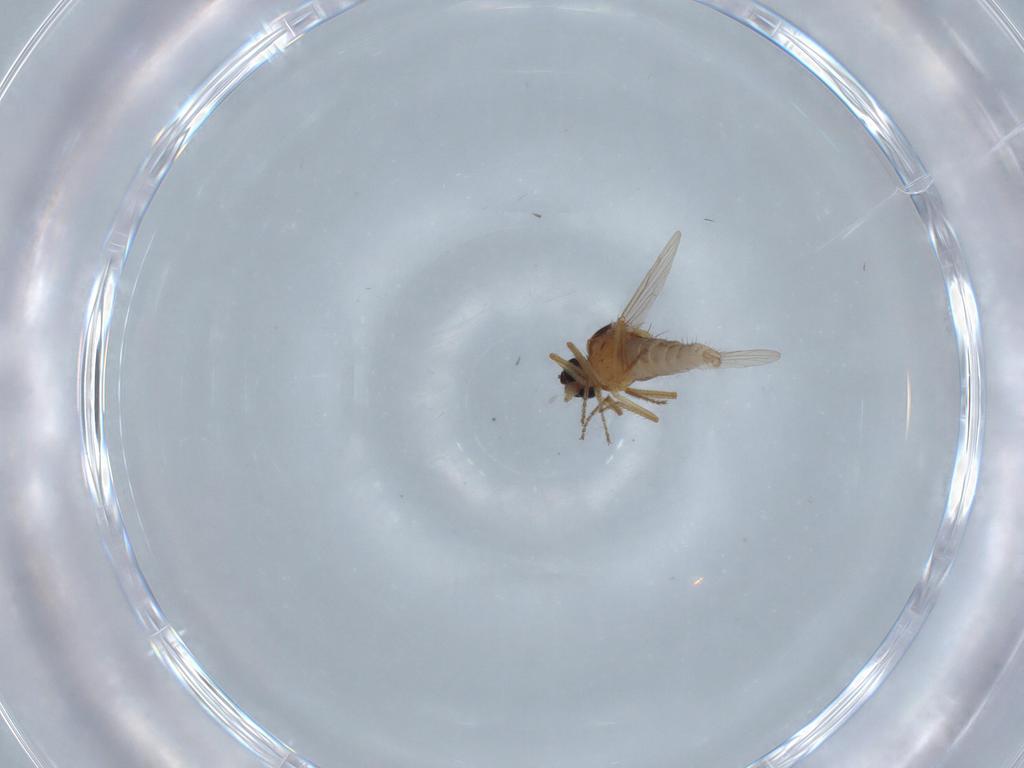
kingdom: Animalia
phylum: Arthropoda
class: Insecta
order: Diptera
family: Ceratopogonidae
